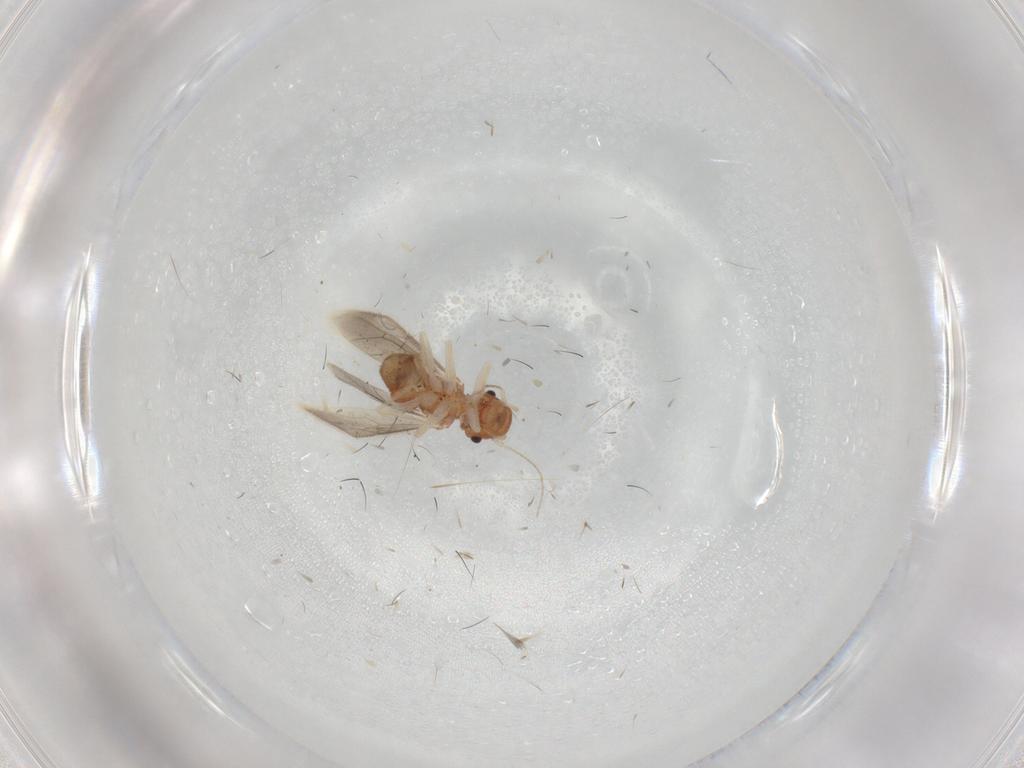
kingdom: Animalia
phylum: Arthropoda
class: Insecta
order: Psocodea
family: Archipsocidae
